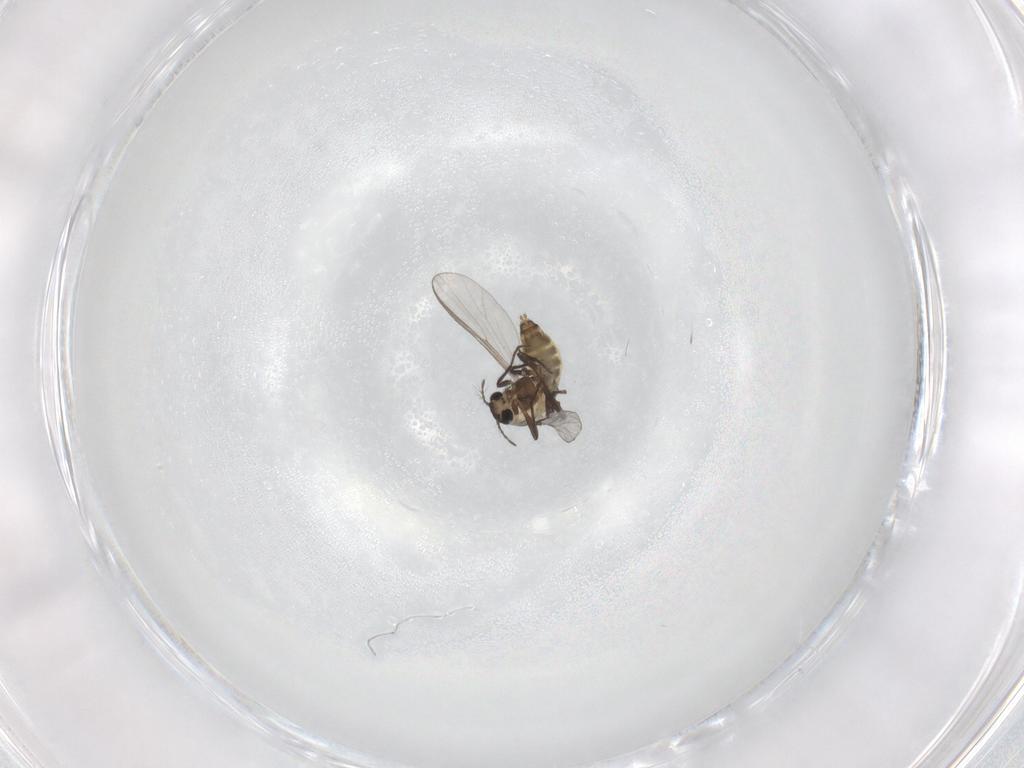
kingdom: Animalia
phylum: Arthropoda
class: Insecta
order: Diptera
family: Chironomidae
